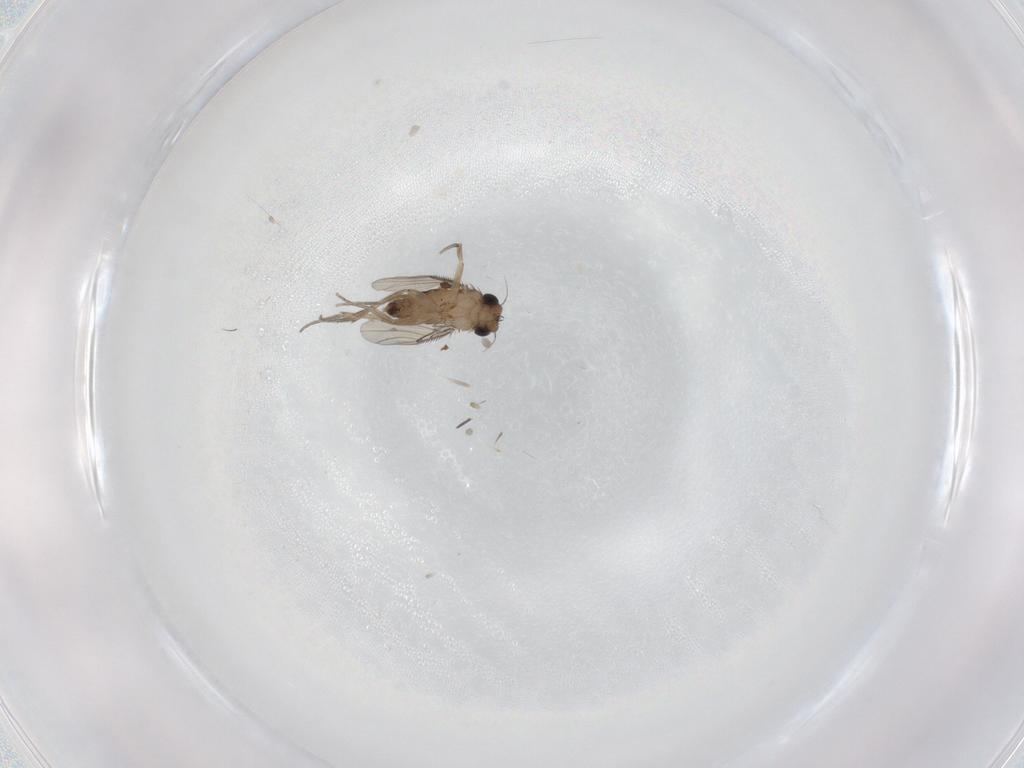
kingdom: Animalia
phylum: Arthropoda
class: Insecta
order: Diptera
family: Phoridae
